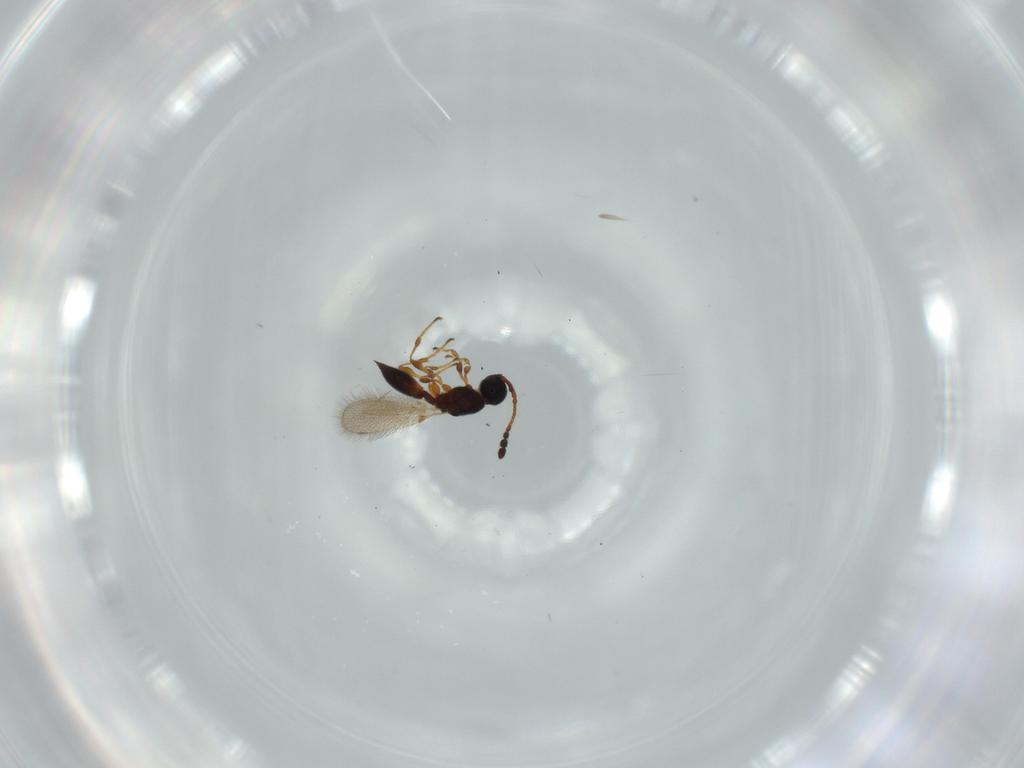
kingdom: Animalia
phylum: Arthropoda
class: Insecta
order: Hymenoptera
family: Diapriidae
